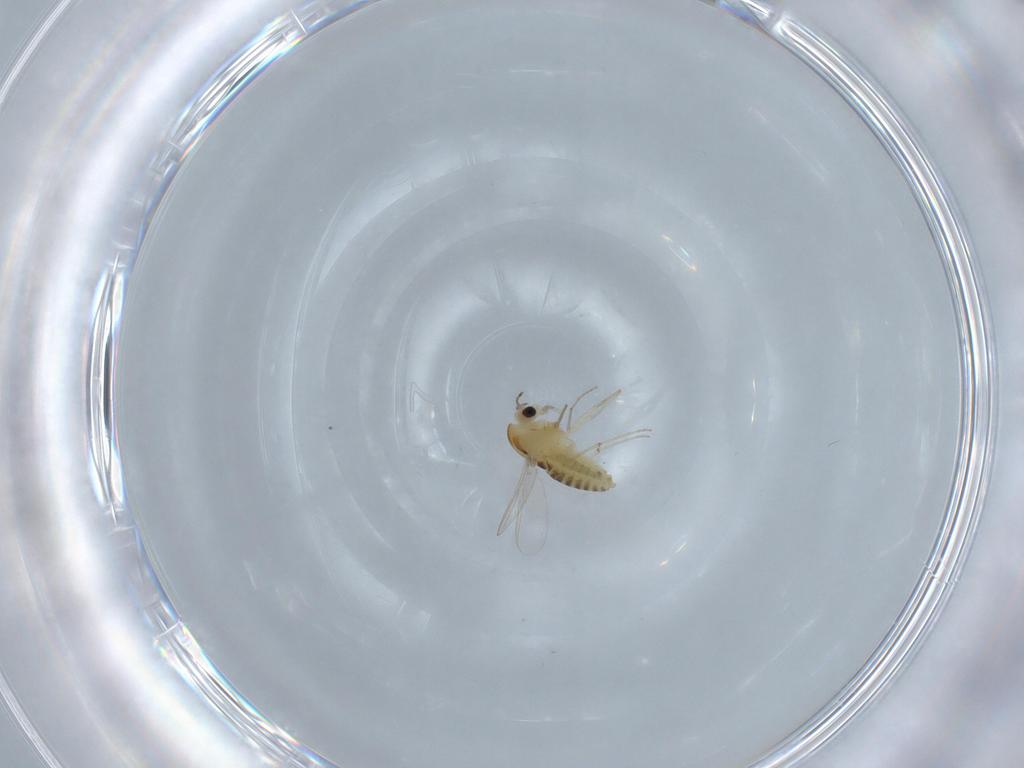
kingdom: Animalia
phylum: Arthropoda
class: Insecta
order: Diptera
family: Chironomidae
